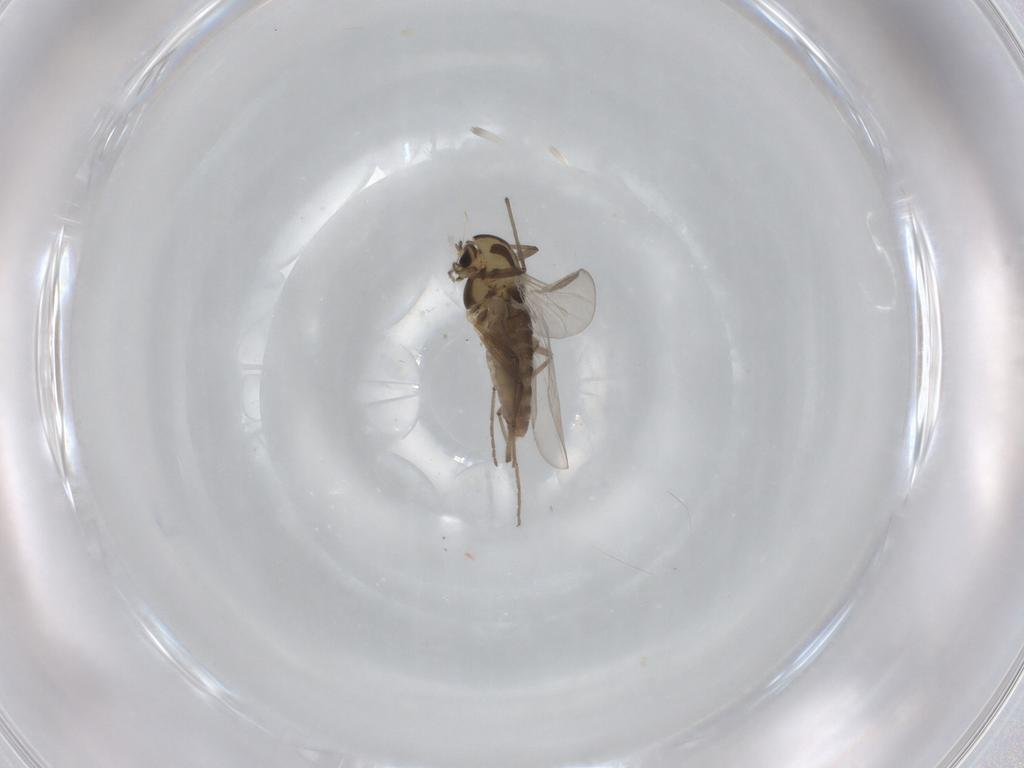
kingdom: Animalia
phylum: Arthropoda
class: Insecta
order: Diptera
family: Chironomidae
